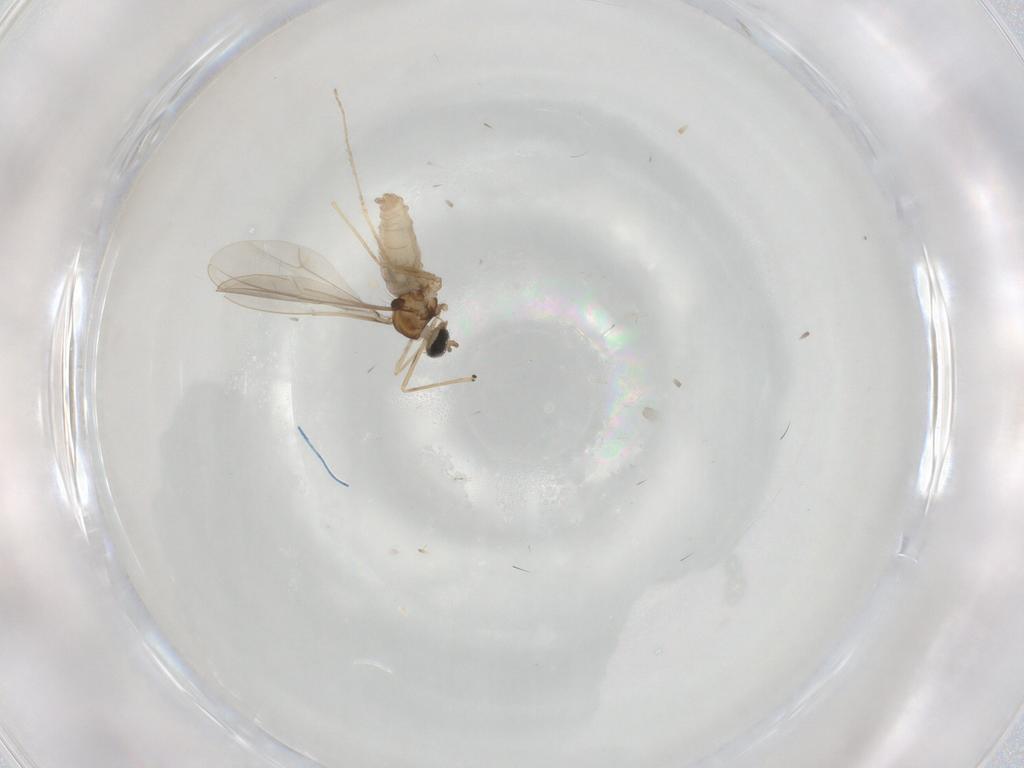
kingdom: Animalia
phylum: Arthropoda
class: Insecta
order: Diptera
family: Cecidomyiidae
